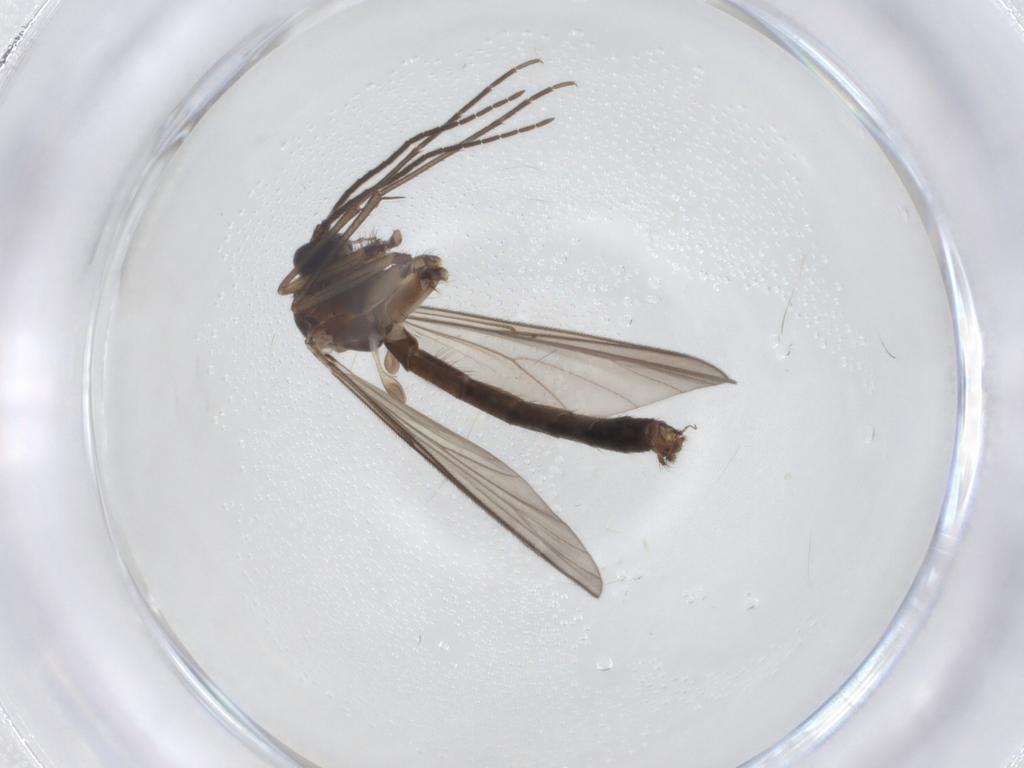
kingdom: Animalia
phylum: Arthropoda
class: Insecta
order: Diptera
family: Mycetophilidae
